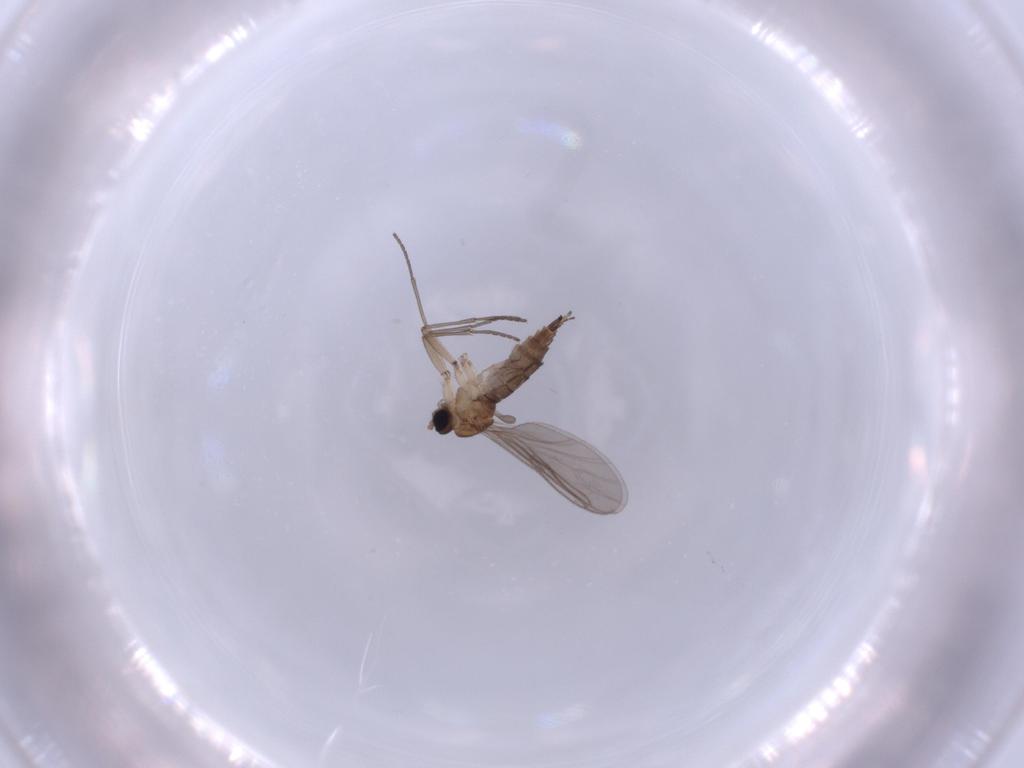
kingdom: Animalia
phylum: Arthropoda
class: Insecta
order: Diptera
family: Sciaridae
